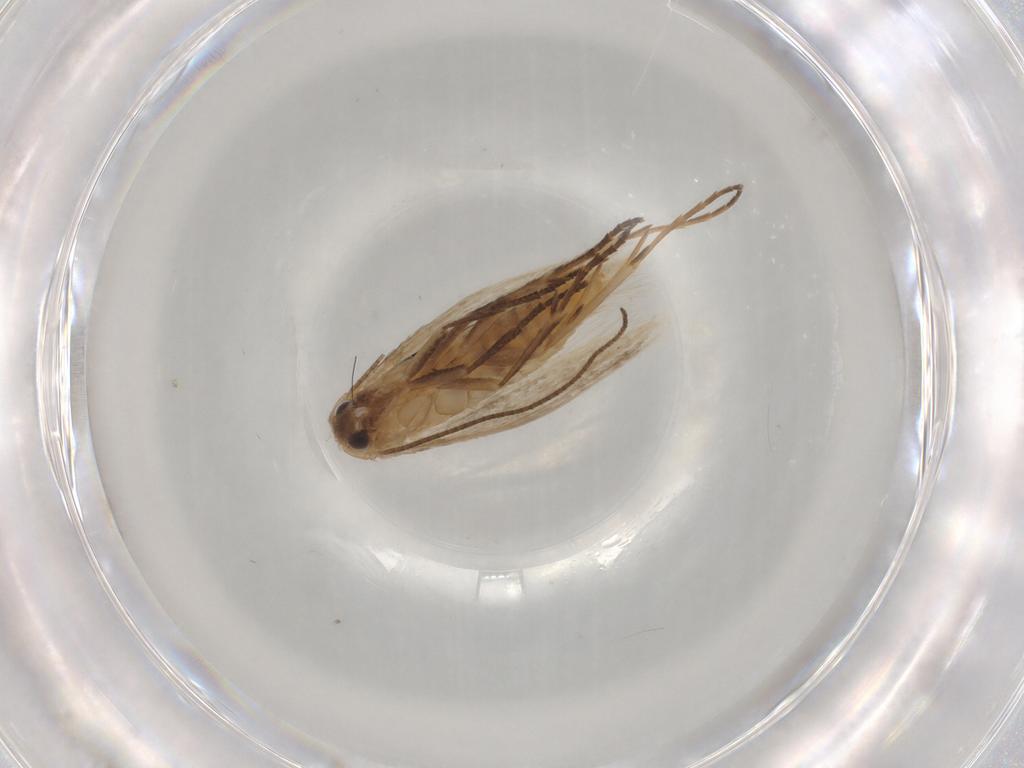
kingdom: Animalia
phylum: Arthropoda
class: Insecta
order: Lepidoptera
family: Bucculatricidae
